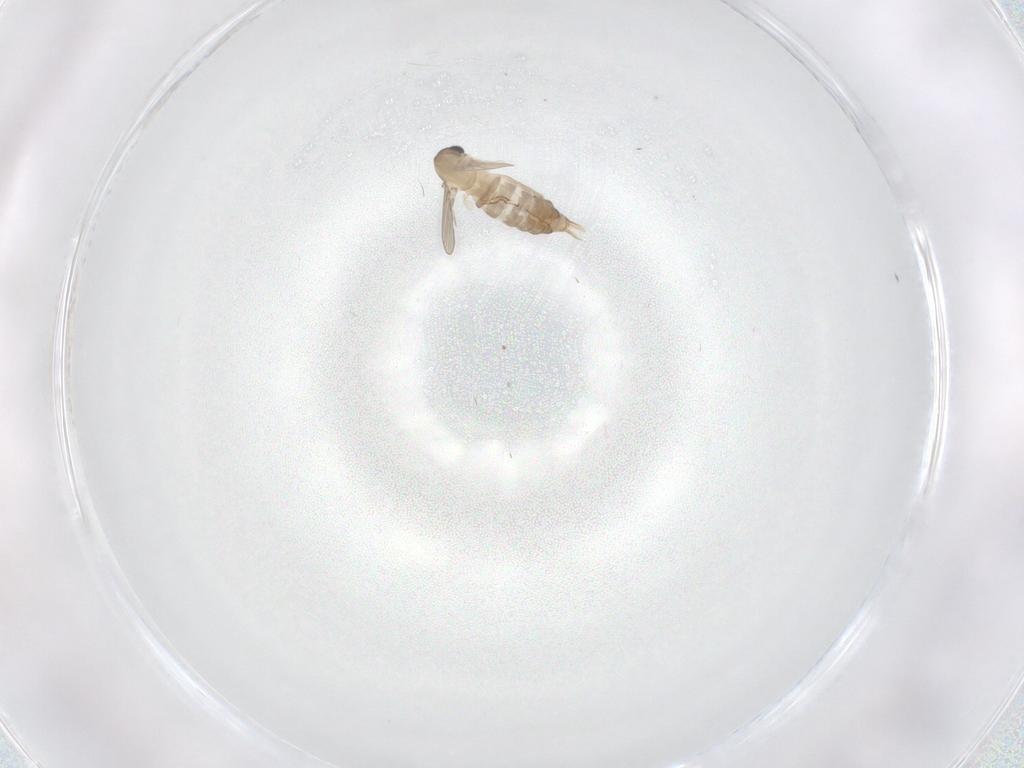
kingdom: Animalia
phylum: Arthropoda
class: Insecta
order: Diptera
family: Psychodidae
